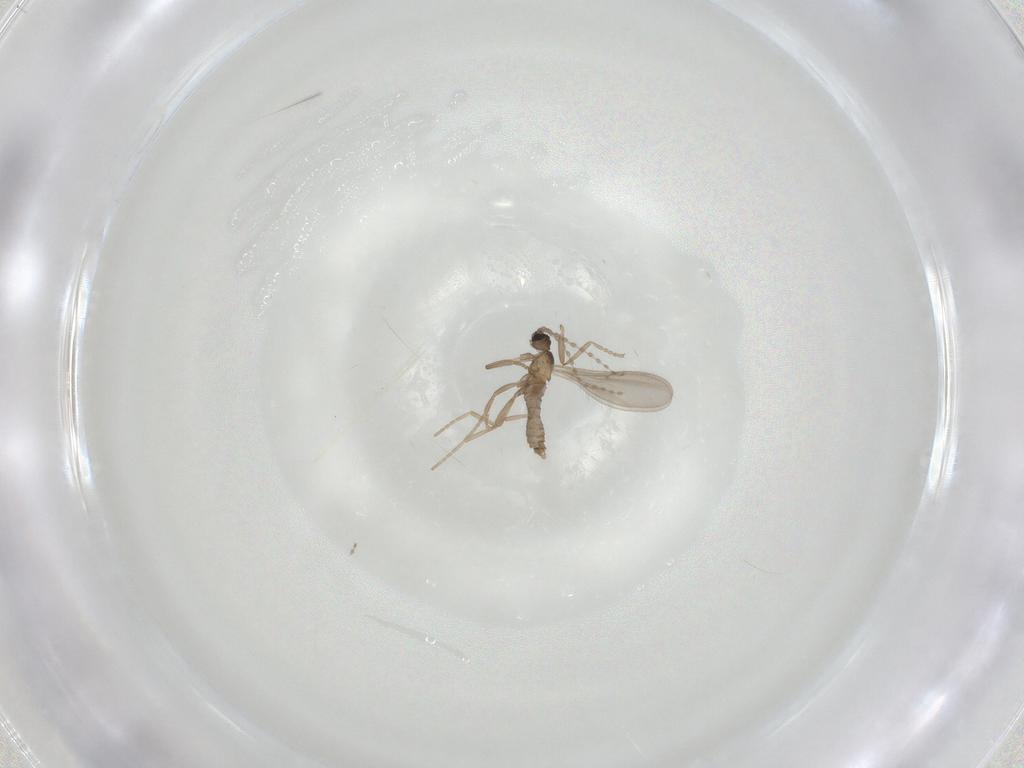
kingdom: Animalia
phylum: Arthropoda
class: Insecta
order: Diptera
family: Cecidomyiidae
